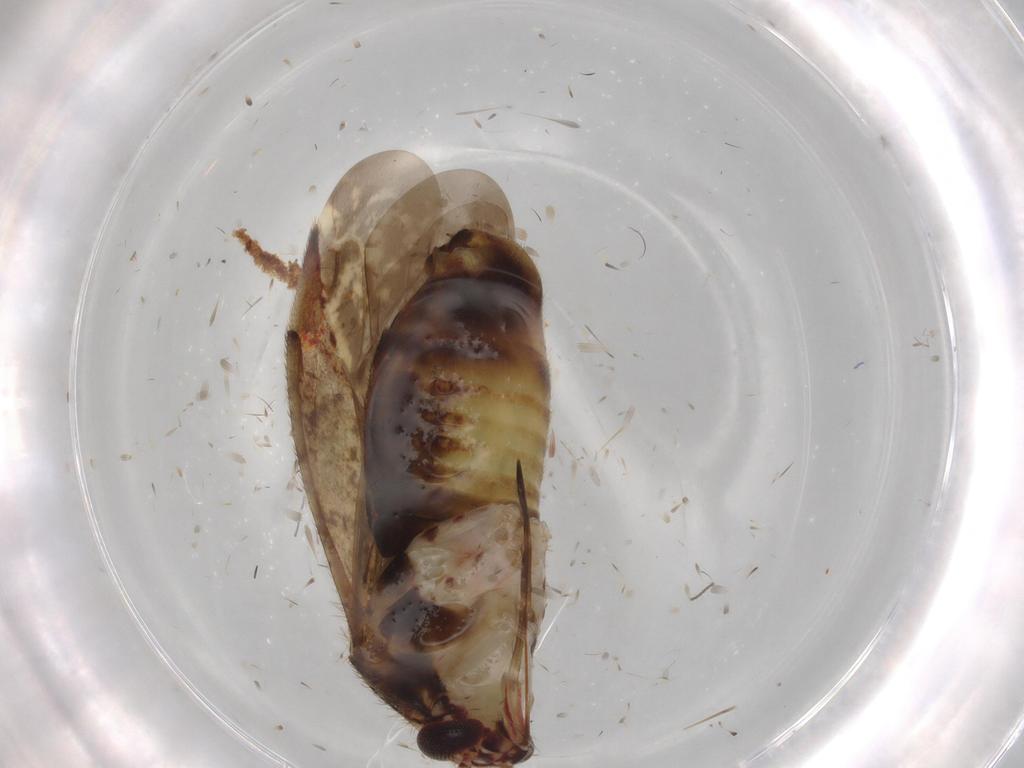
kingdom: Animalia
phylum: Arthropoda
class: Insecta
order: Hemiptera
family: Miridae
